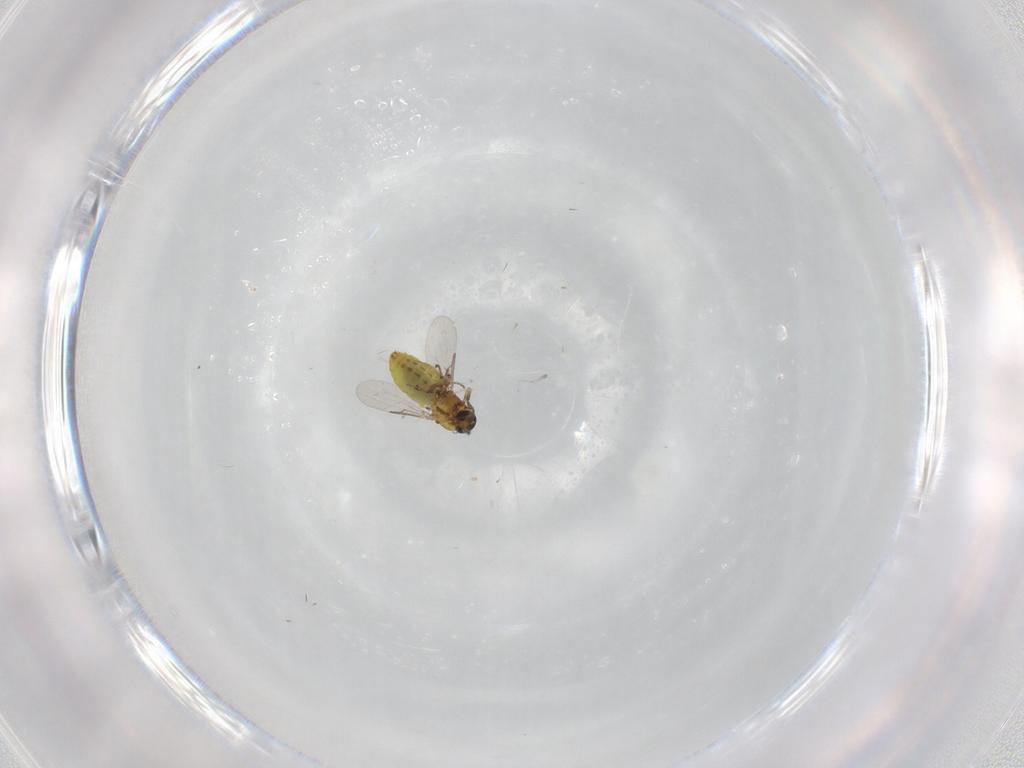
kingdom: Animalia
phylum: Arthropoda
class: Insecta
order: Diptera
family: Ceratopogonidae
